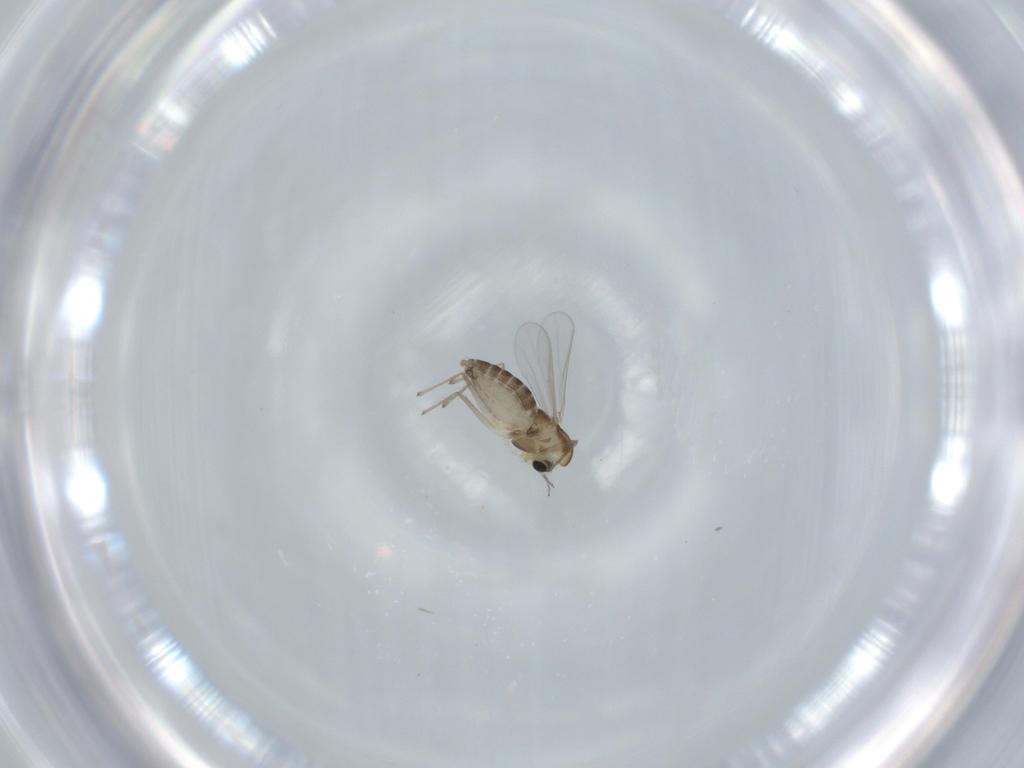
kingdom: Animalia
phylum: Arthropoda
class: Insecta
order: Diptera
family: Chironomidae
